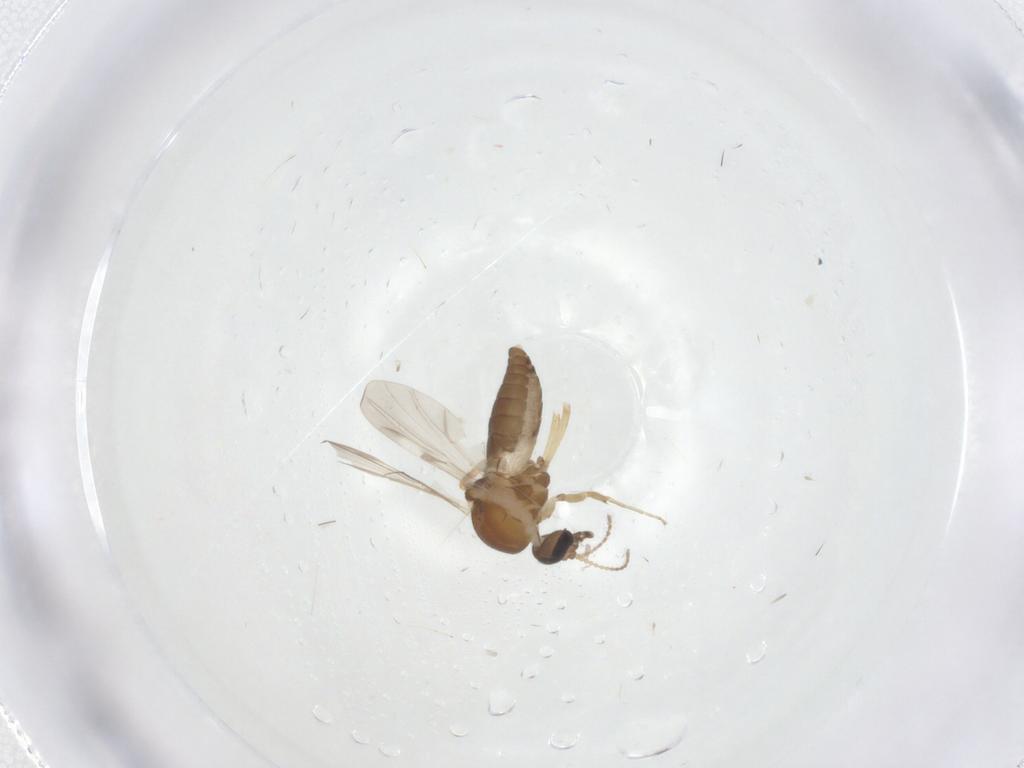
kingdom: Animalia
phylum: Arthropoda
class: Insecta
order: Diptera
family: Ceratopogonidae
